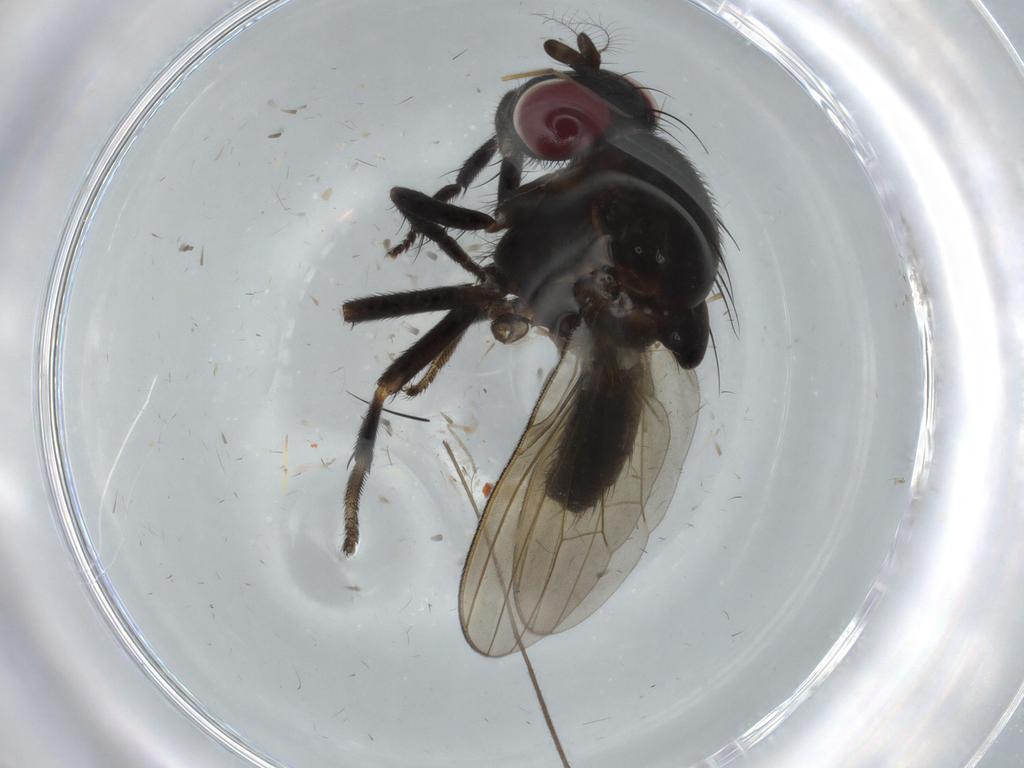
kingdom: Animalia
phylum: Arthropoda
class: Insecta
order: Diptera
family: Lauxaniidae
